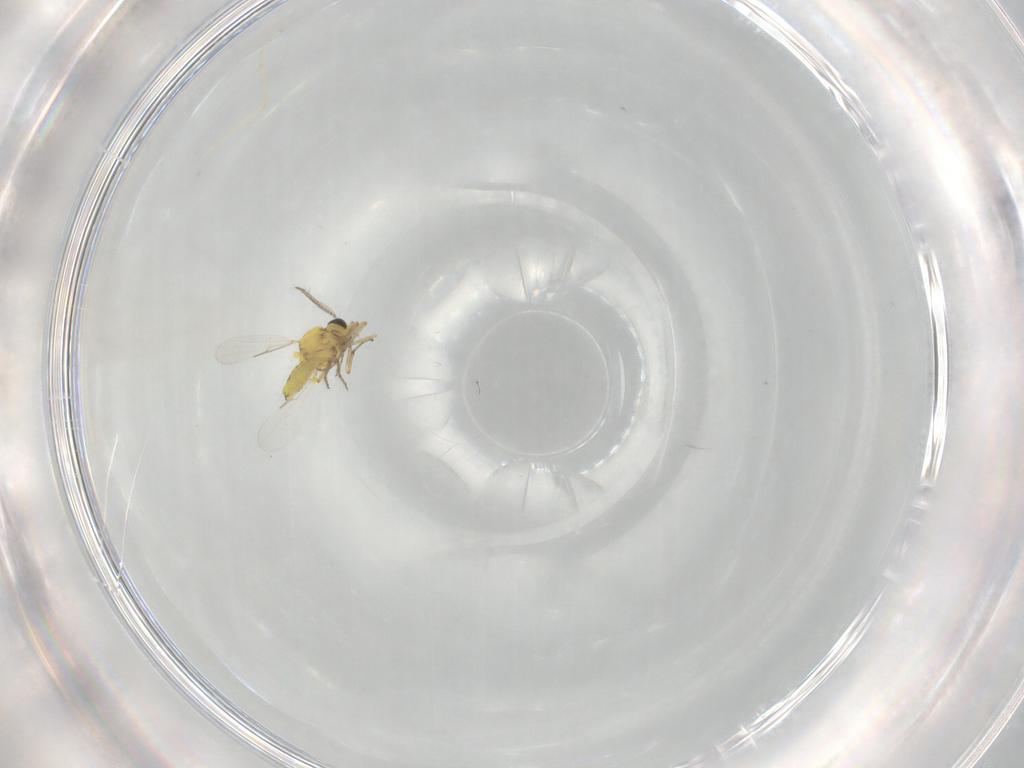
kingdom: Animalia
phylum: Arthropoda
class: Insecta
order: Diptera
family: Ceratopogonidae
